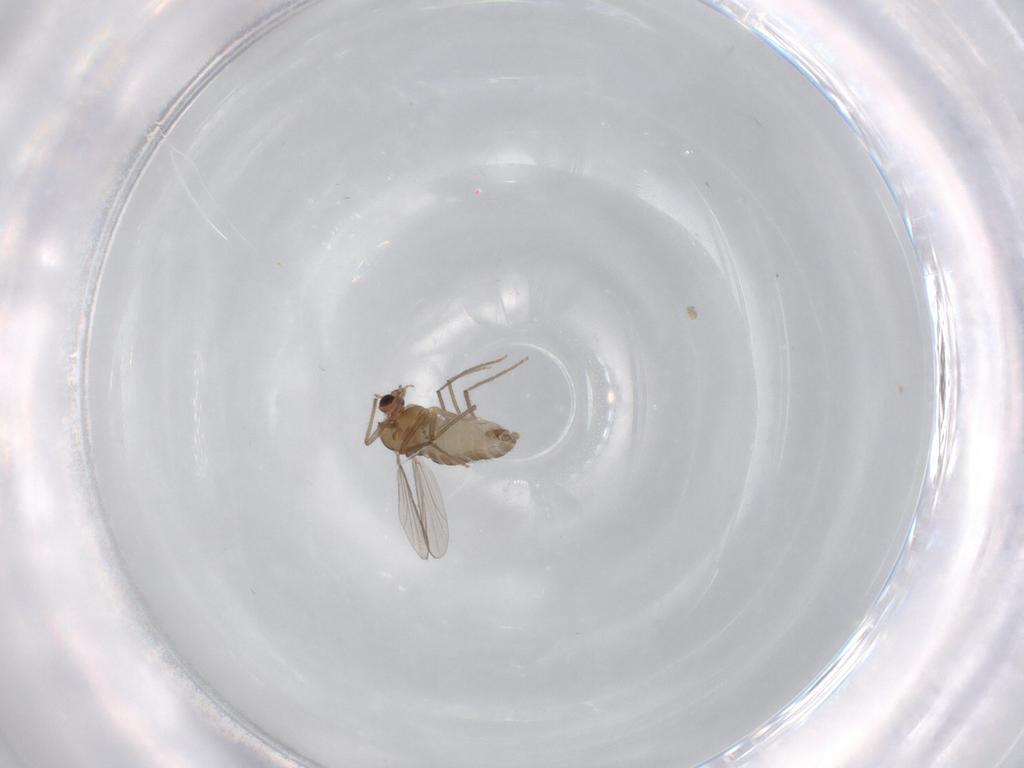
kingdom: Animalia
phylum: Arthropoda
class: Insecta
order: Diptera
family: Chironomidae
